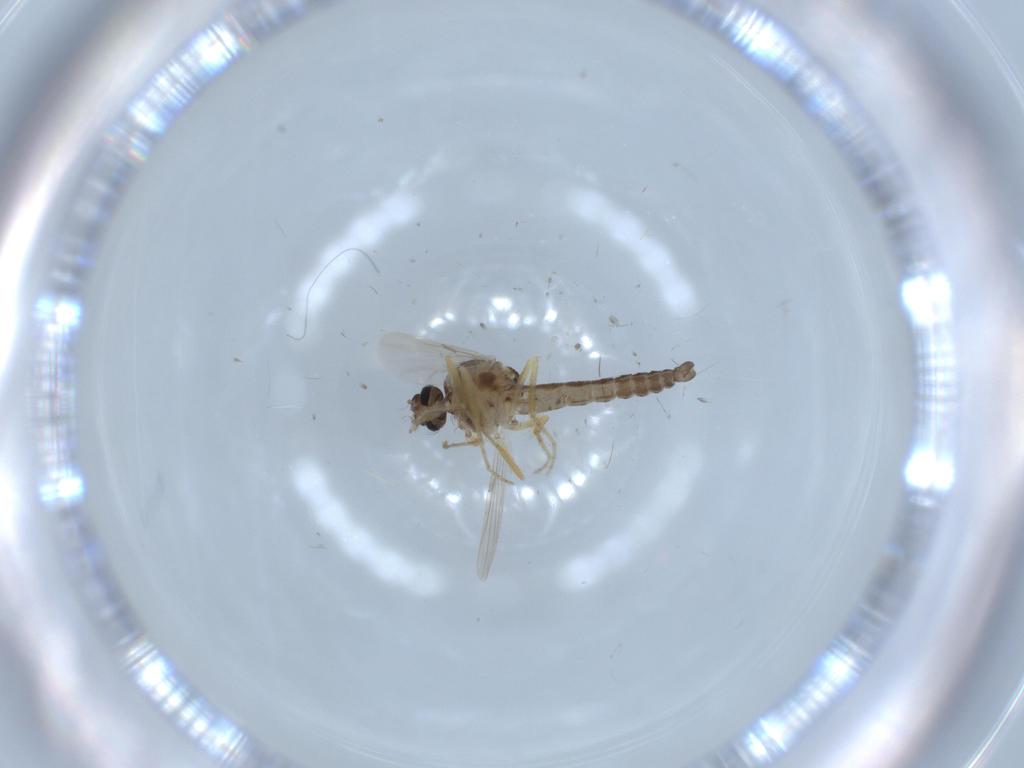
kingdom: Animalia
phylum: Arthropoda
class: Insecta
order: Diptera
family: Ceratopogonidae
